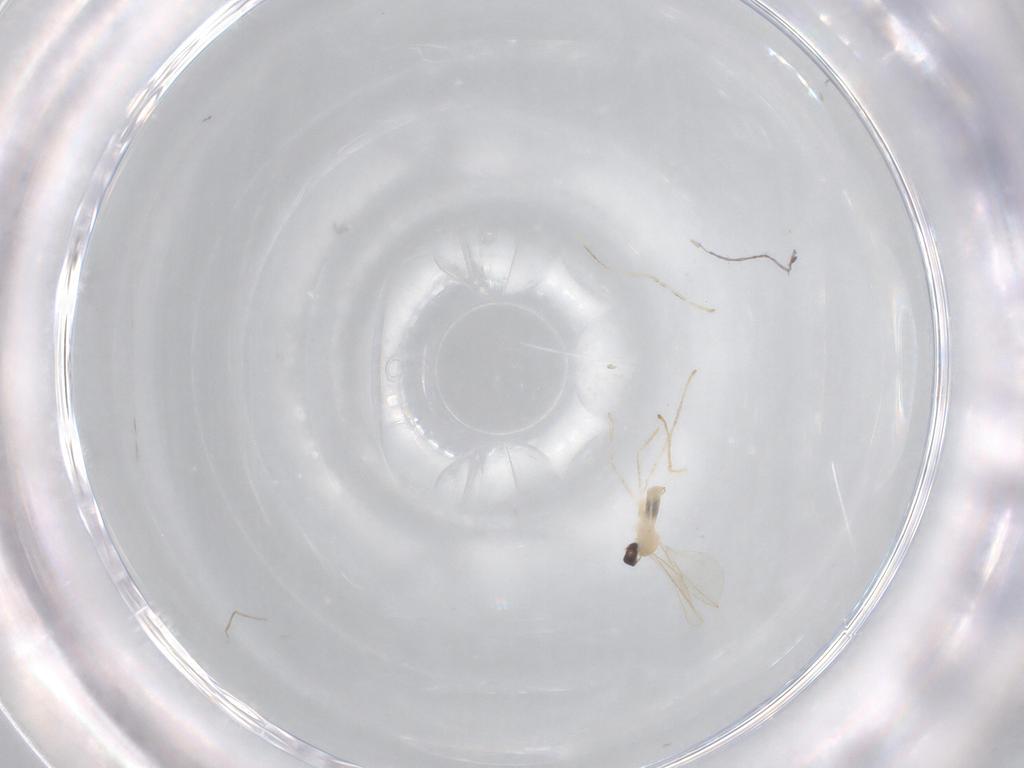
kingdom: Animalia
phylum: Arthropoda
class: Insecta
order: Diptera
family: Cecidomyiidae
